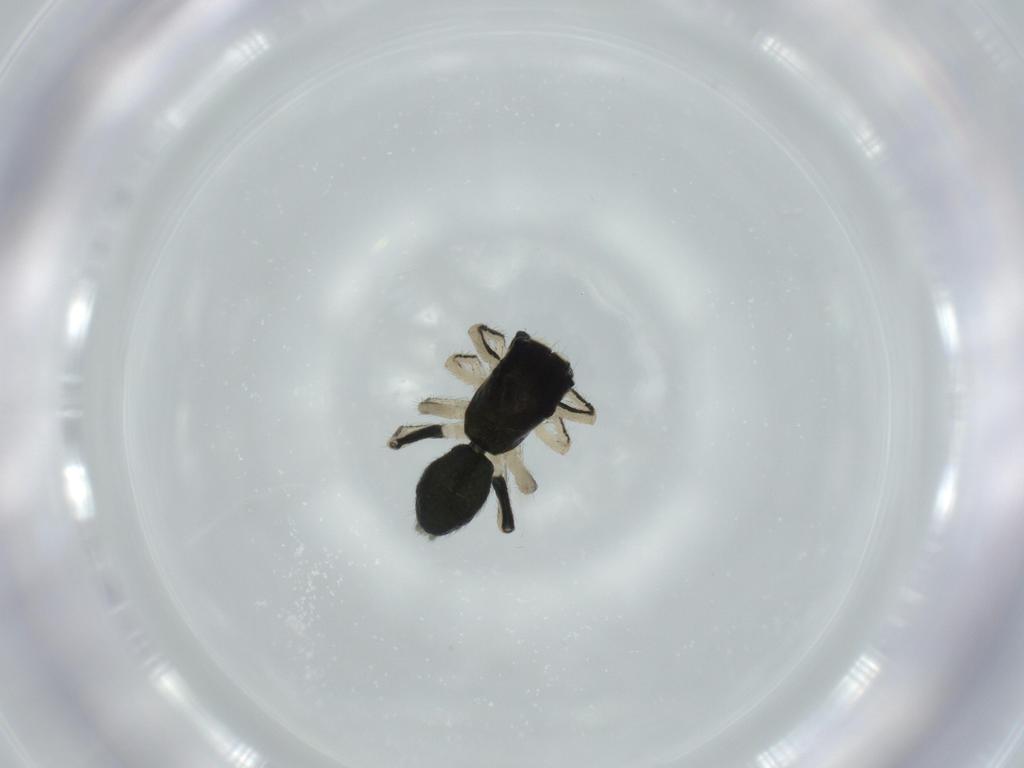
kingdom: Animalia
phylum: Arthropoda
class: Arachnida
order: Araneae
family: Salticidae
